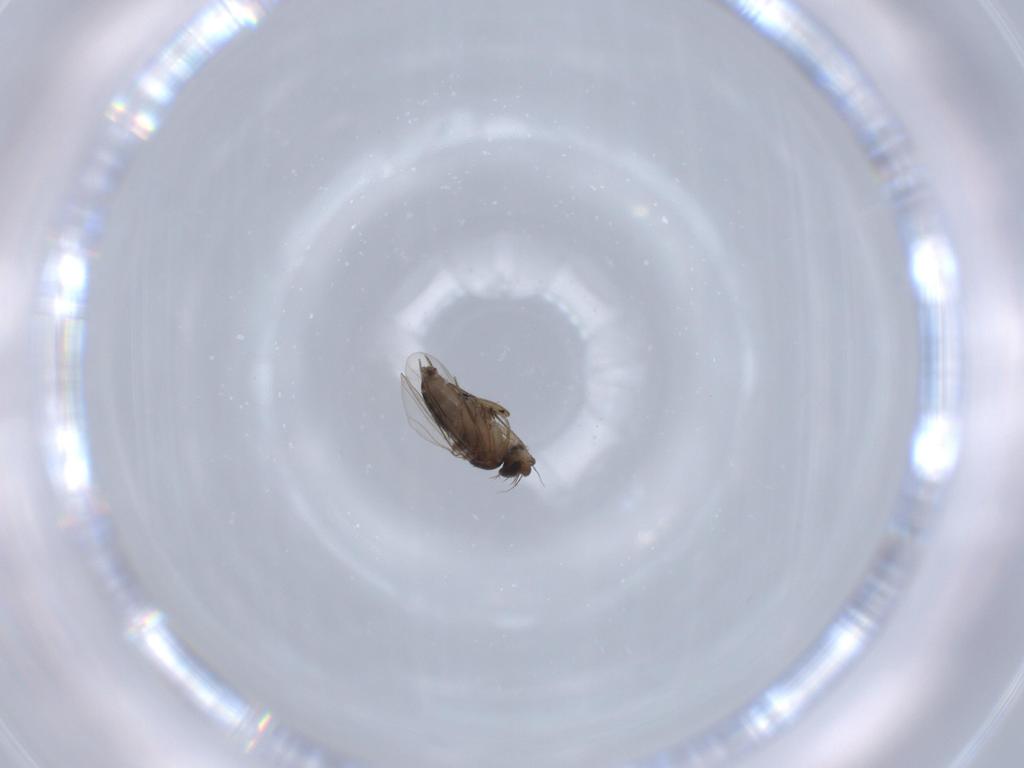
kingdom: Animalia
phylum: Arthropoda
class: Insecta
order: Diptera
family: Phoridae
